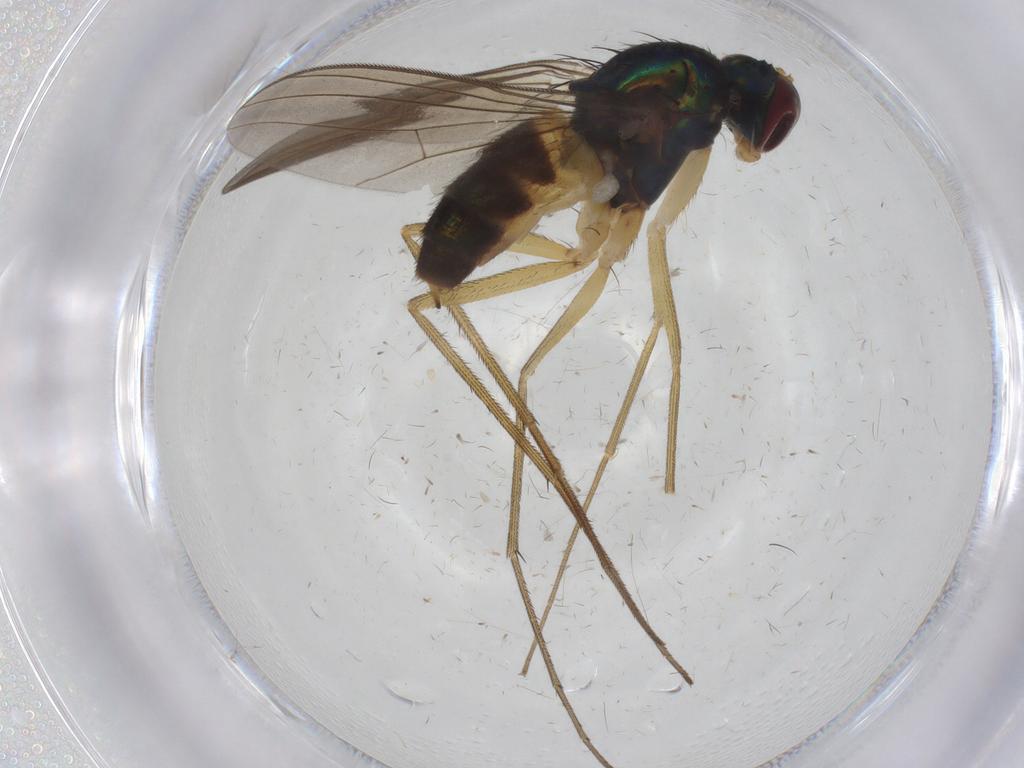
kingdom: Animalia
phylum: Arthropoda
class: Insecta
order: Diptera
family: Dolichopodidae
